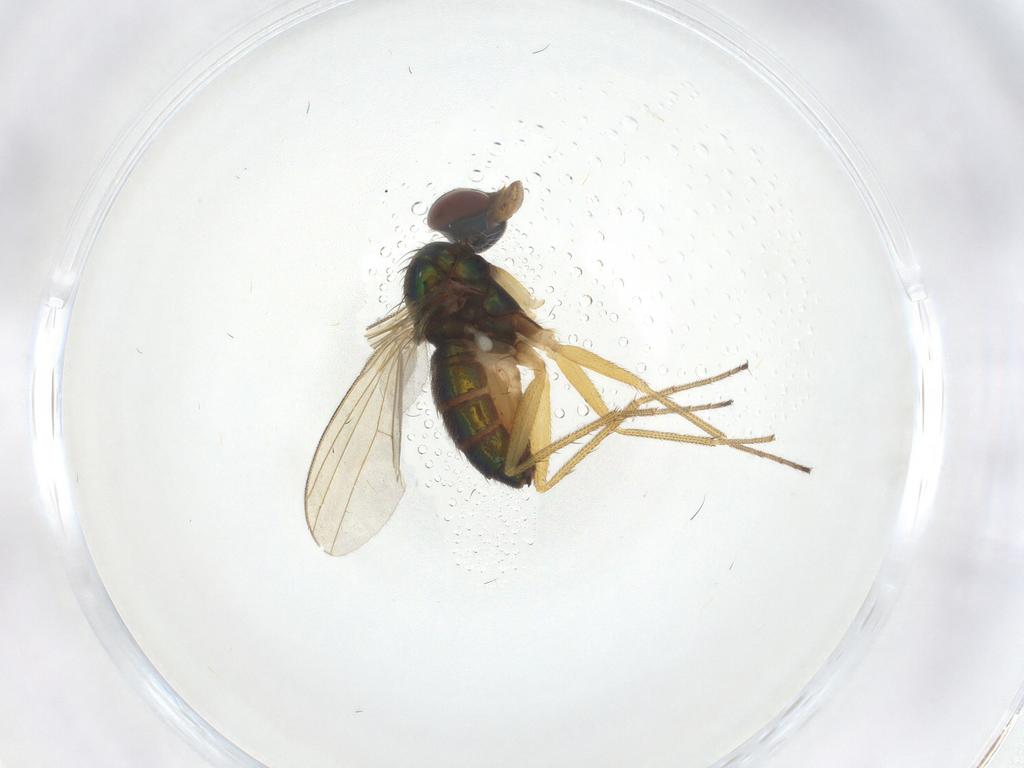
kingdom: Animalia
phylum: Arthropoda
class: Insecta
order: Diptera
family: Dolichopodidae
